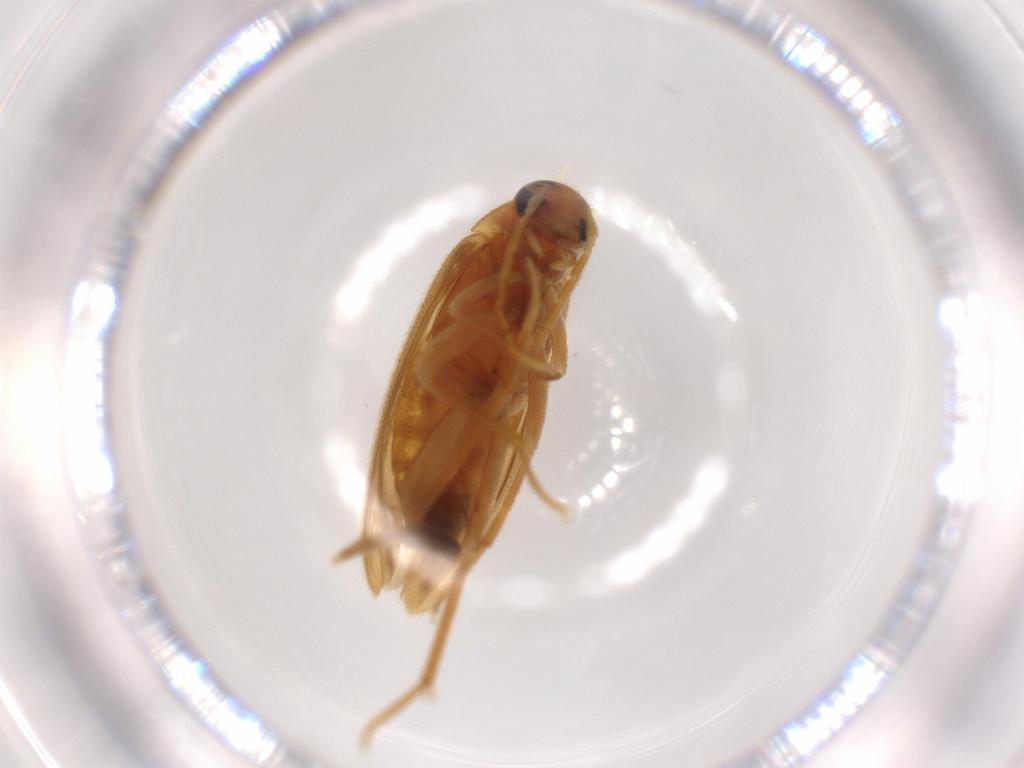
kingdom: Animalia
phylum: Arthropoda
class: Insecta
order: Coleoptera
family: Scraptiidae
